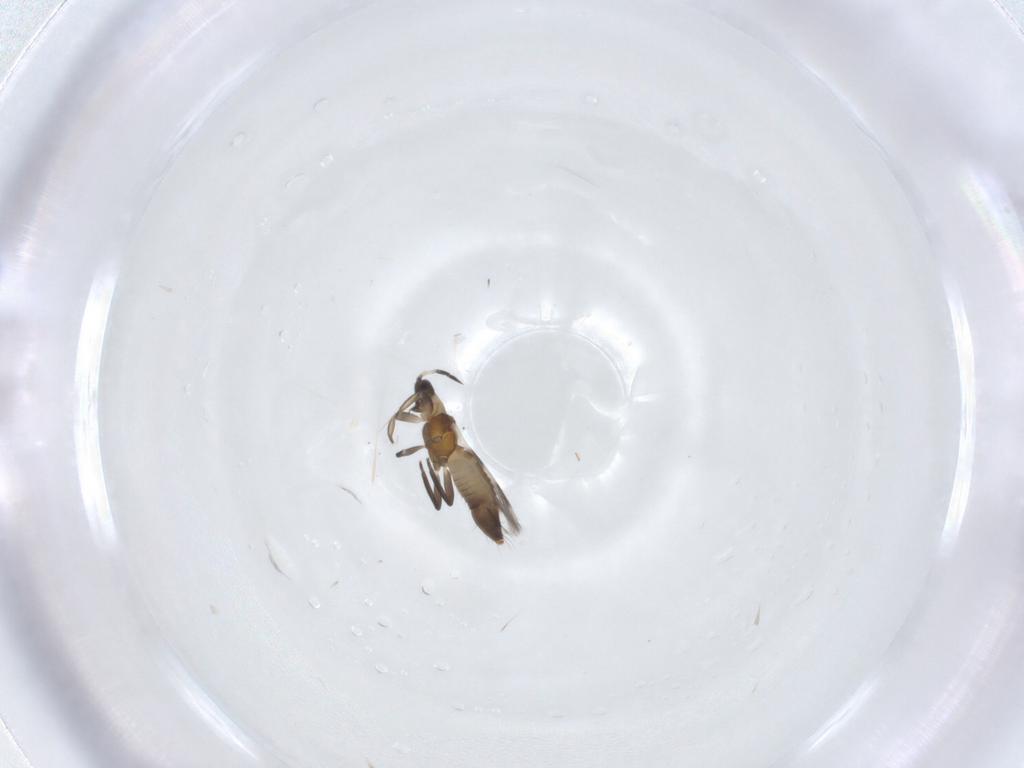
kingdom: Animalia
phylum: Arthropoda
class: Insecta
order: Thysanoptera
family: Aeolothripidae
